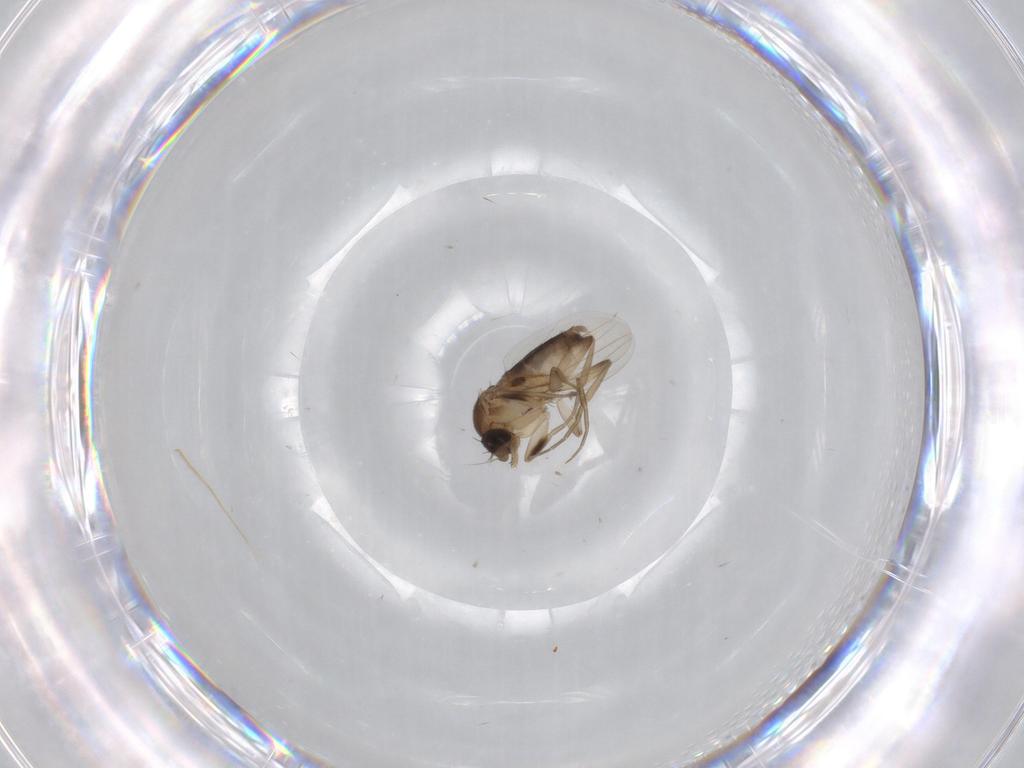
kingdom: Animalia
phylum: Arthropoda
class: Insecta
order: Diptera
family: Phoridae
